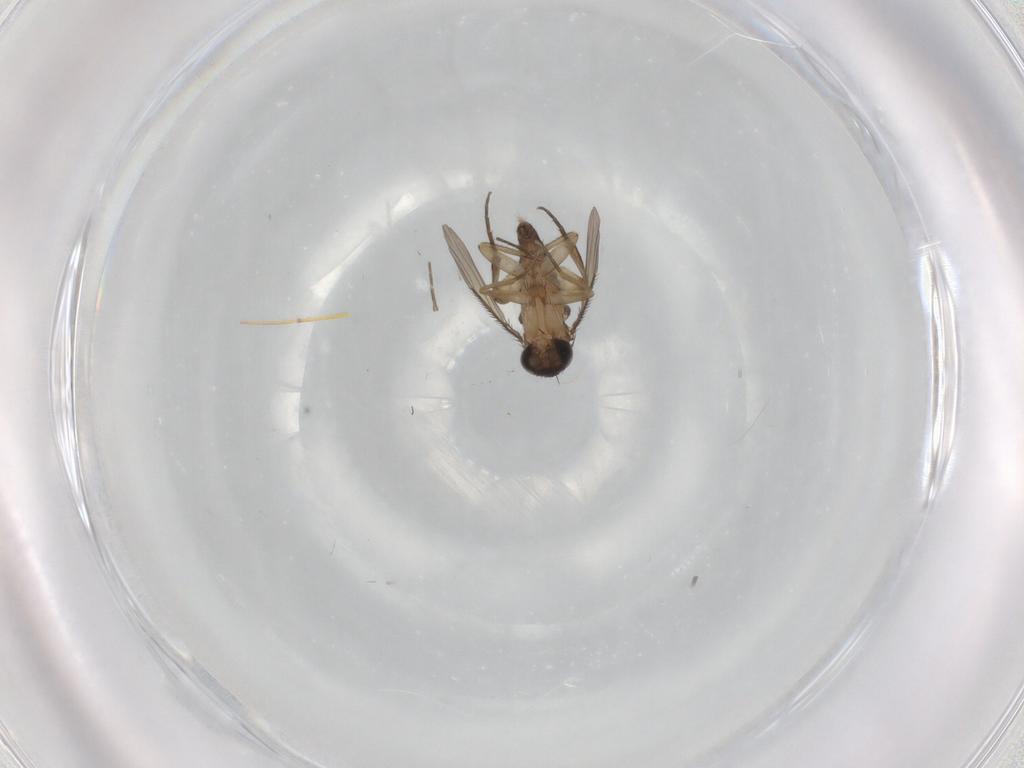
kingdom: Animalia
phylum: Arthropoda
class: Insecta
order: Diptera
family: Phoridae
